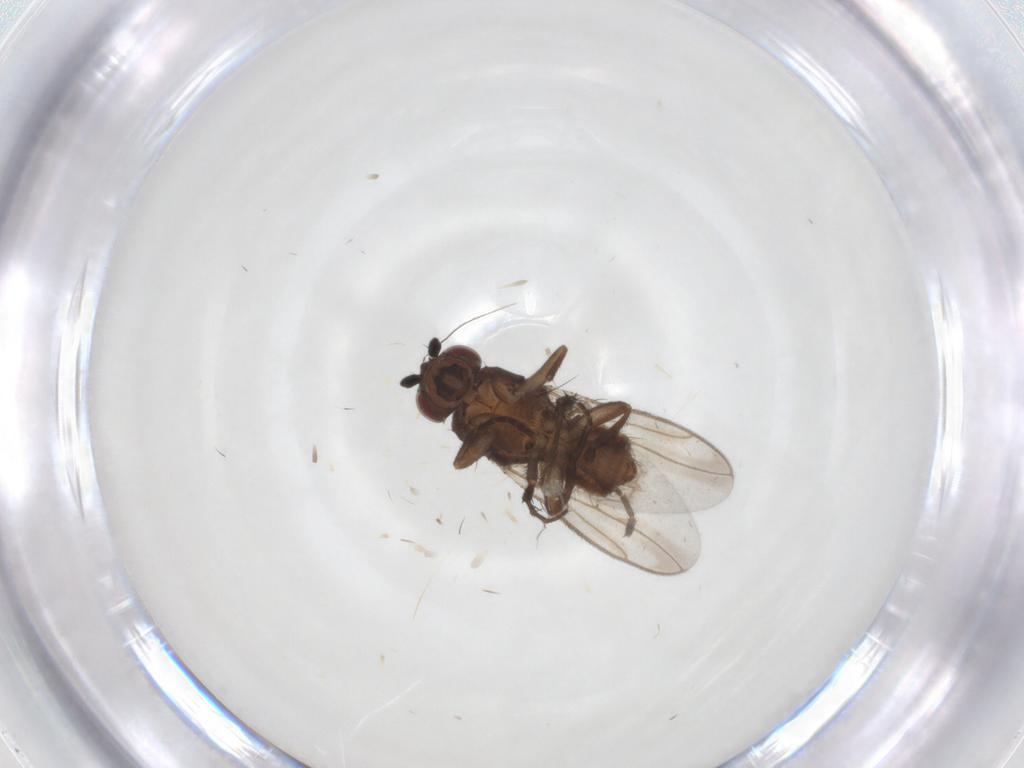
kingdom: Animalia
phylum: Arthropoda
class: Insecta
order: Diptera
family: Sphaeroceridae
